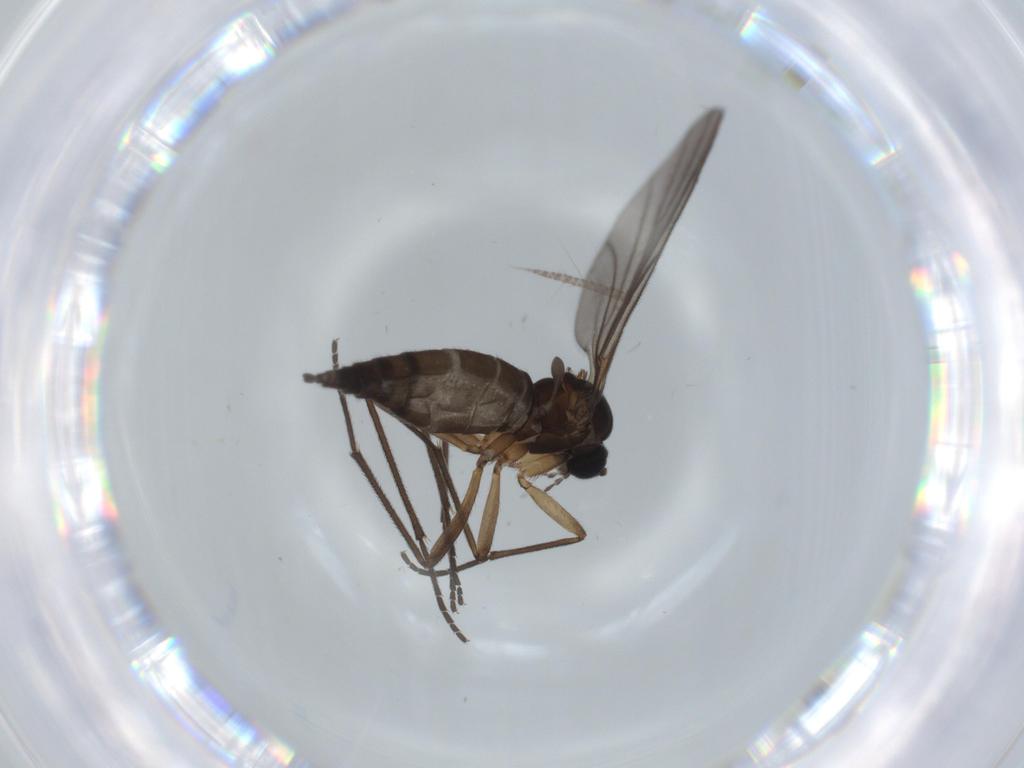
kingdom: Animalia
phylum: Arthropoda
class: Insecta
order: Diptera
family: Sciaridae
